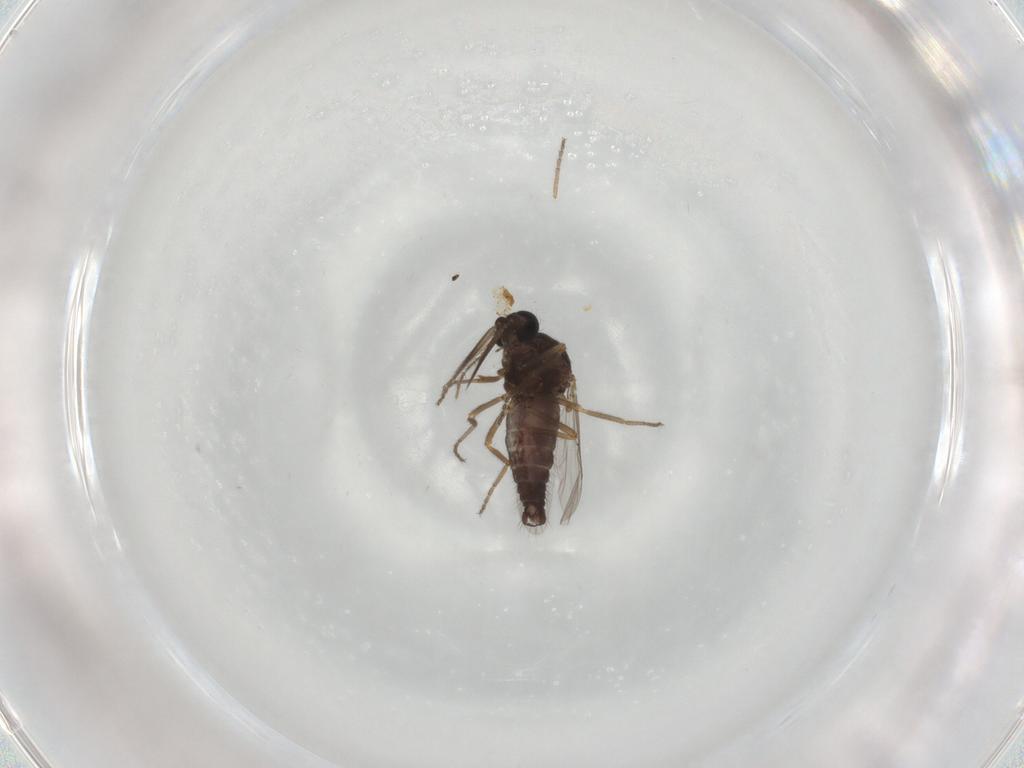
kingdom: Animalia
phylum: Arthropoda
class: Insecta
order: Diptera
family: Ceratopogonidae
